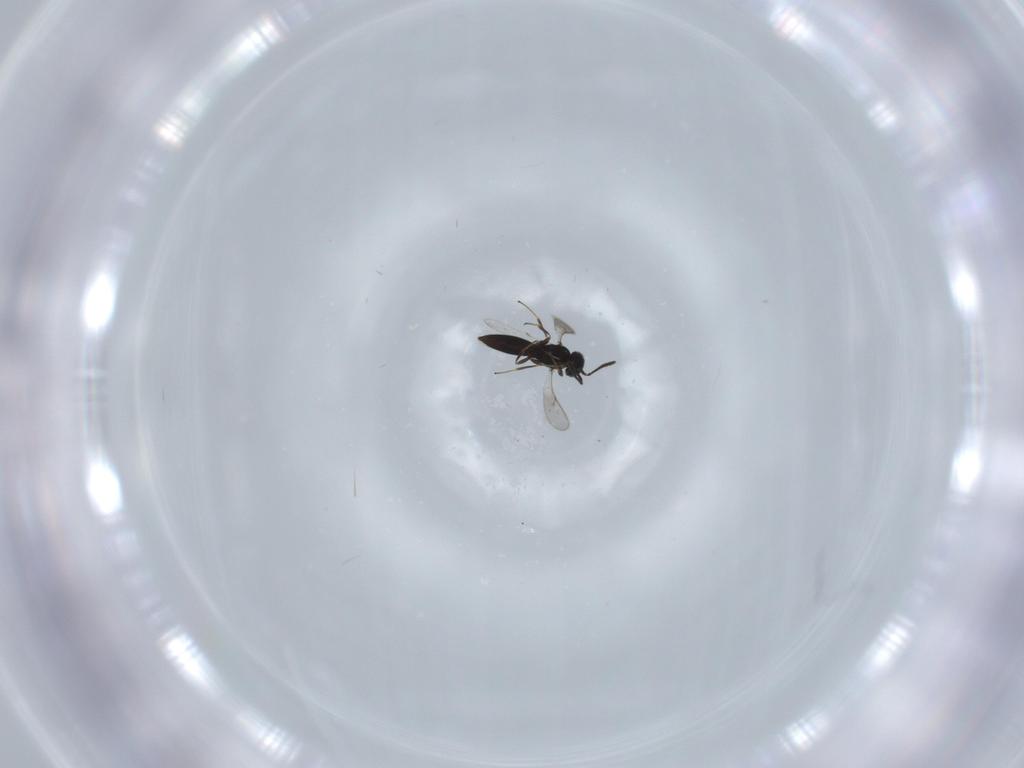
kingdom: Animalia
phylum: Arthropoda
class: Insecta
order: Hymenoptera
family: Scelionidae
